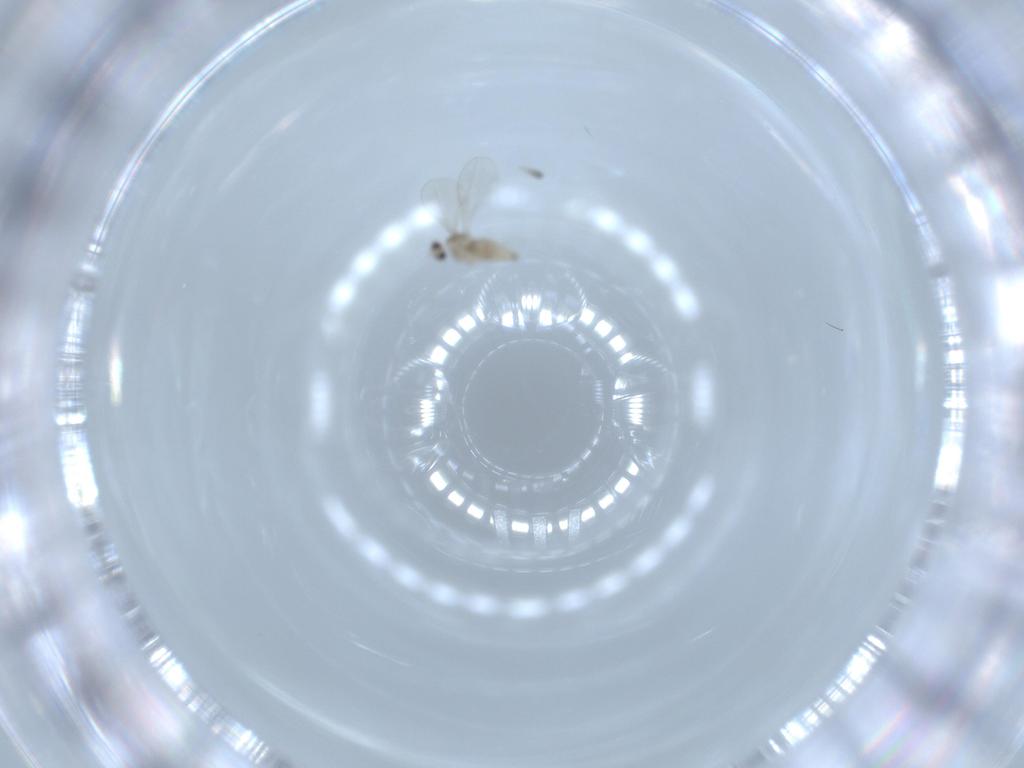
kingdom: Animalia
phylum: Arthropoda
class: Insecta
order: Diptera
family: Cecidomyiidae
